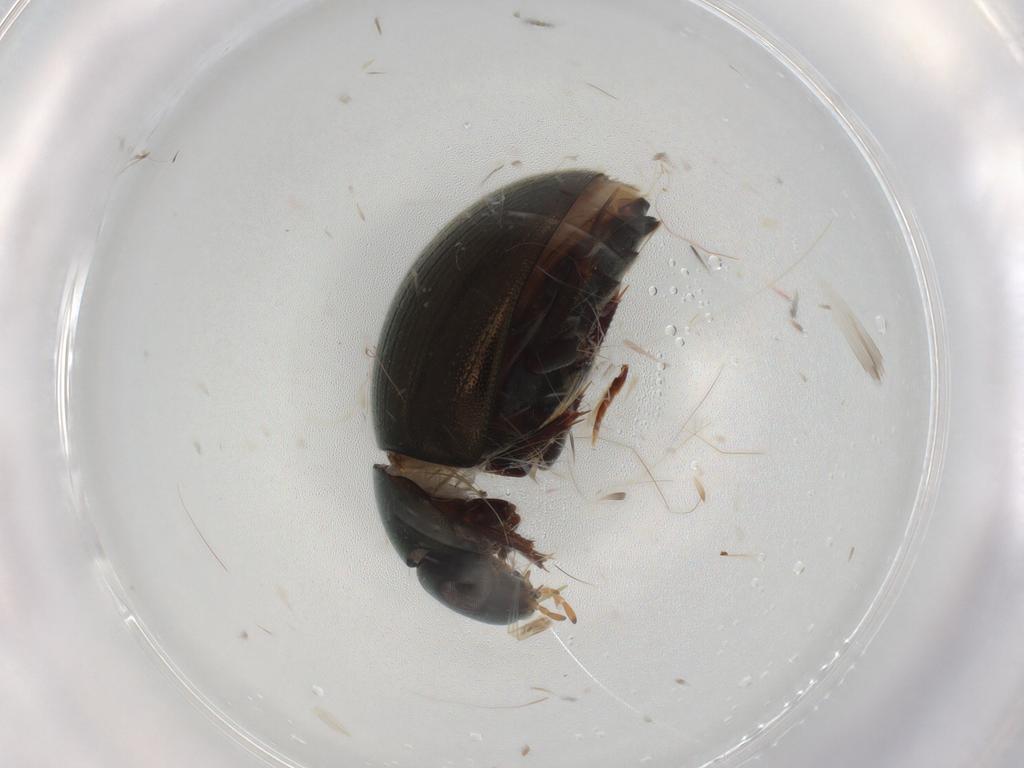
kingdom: Animalia
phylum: Arthropoda
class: Insecta
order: Coleoptera
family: Staphylinidae
